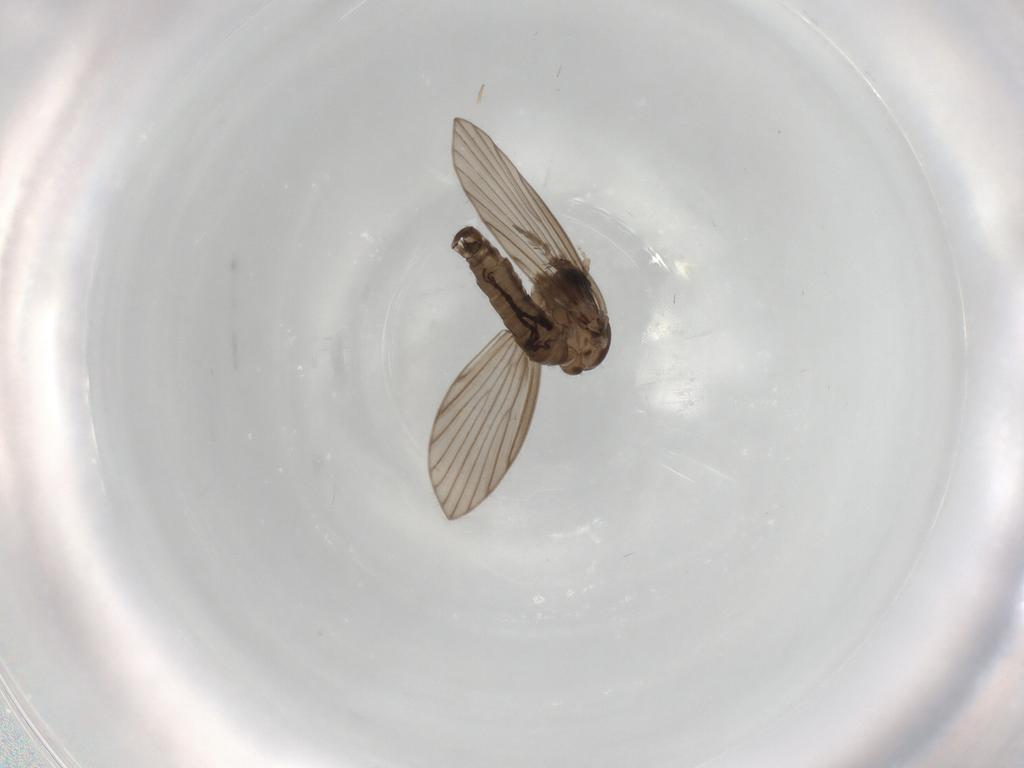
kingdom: Animalia
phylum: Arthropoda
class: Insecta
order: Diptera
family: Psychodidae
